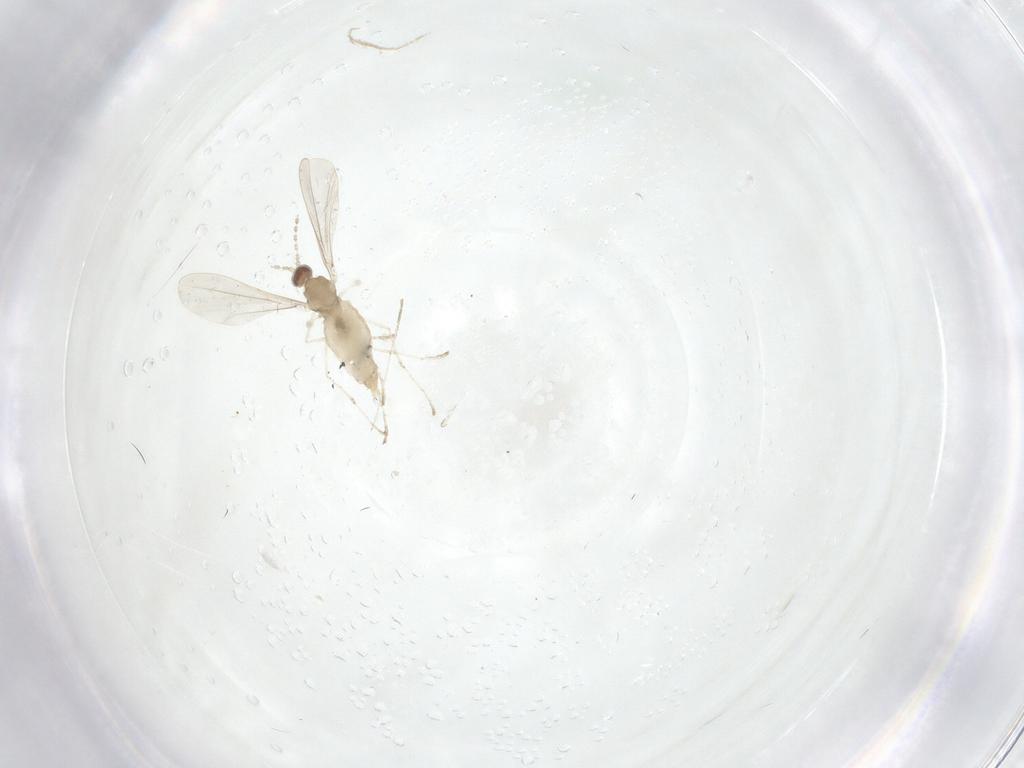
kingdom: Animalia
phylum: Arthropoda
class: Insecta
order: Diptera
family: Cecidomyiidae
